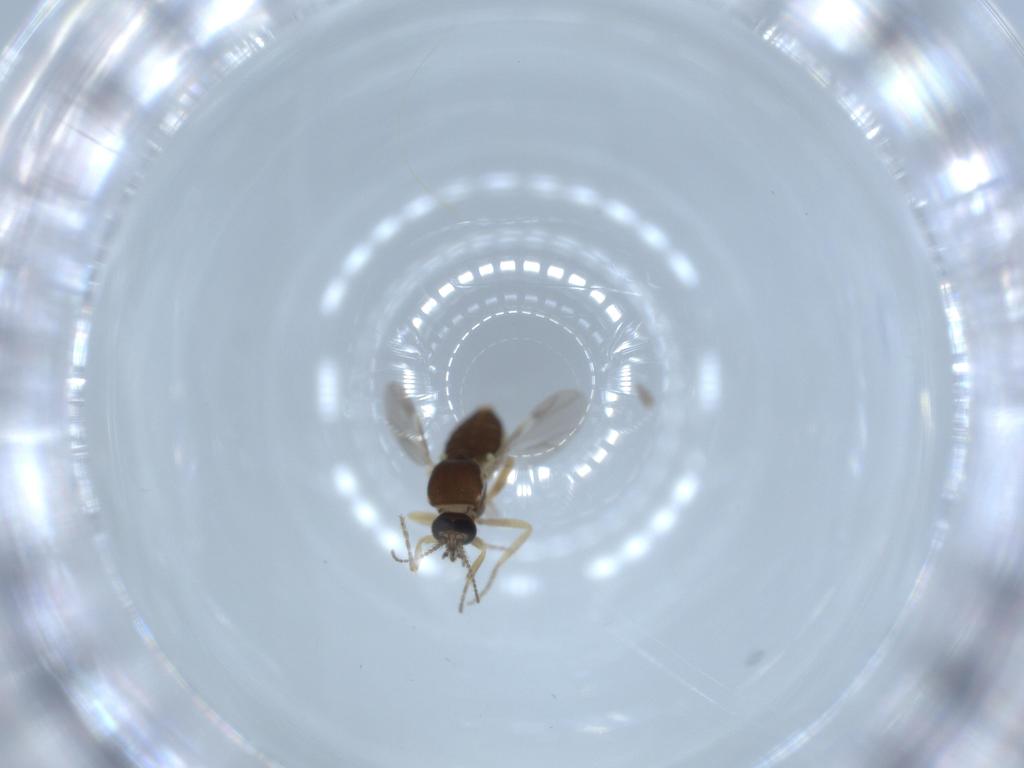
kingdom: Animalia
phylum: Arthropoda
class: Insecta
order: Diptera
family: Ceratopogonidae
